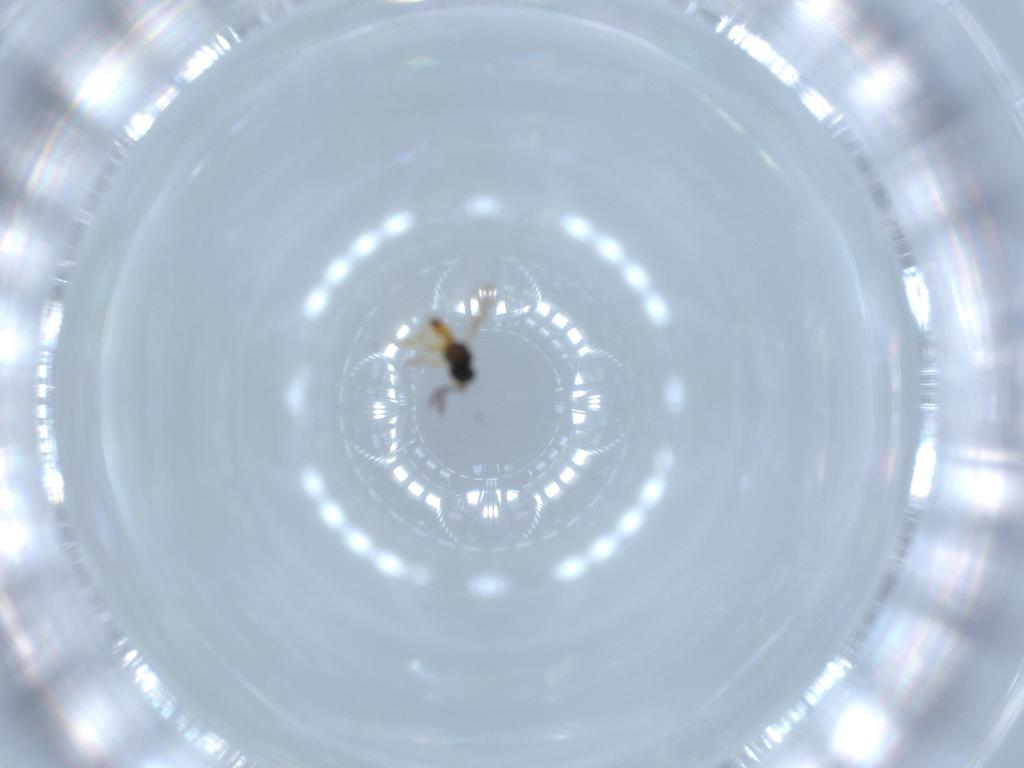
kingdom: Animalia
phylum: Arthropoda
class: Insecta
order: Hymenoptera
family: Scelionidae
